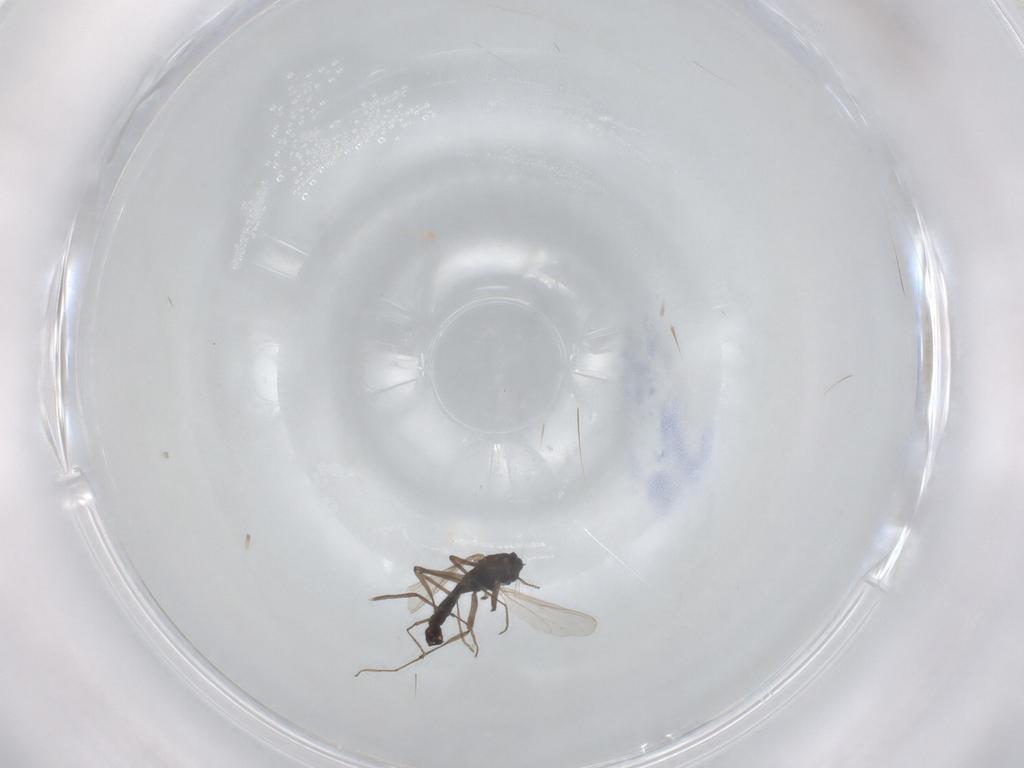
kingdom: Animalia
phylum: Arthropoda
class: Insecta
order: Diptera
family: Chironomidae
